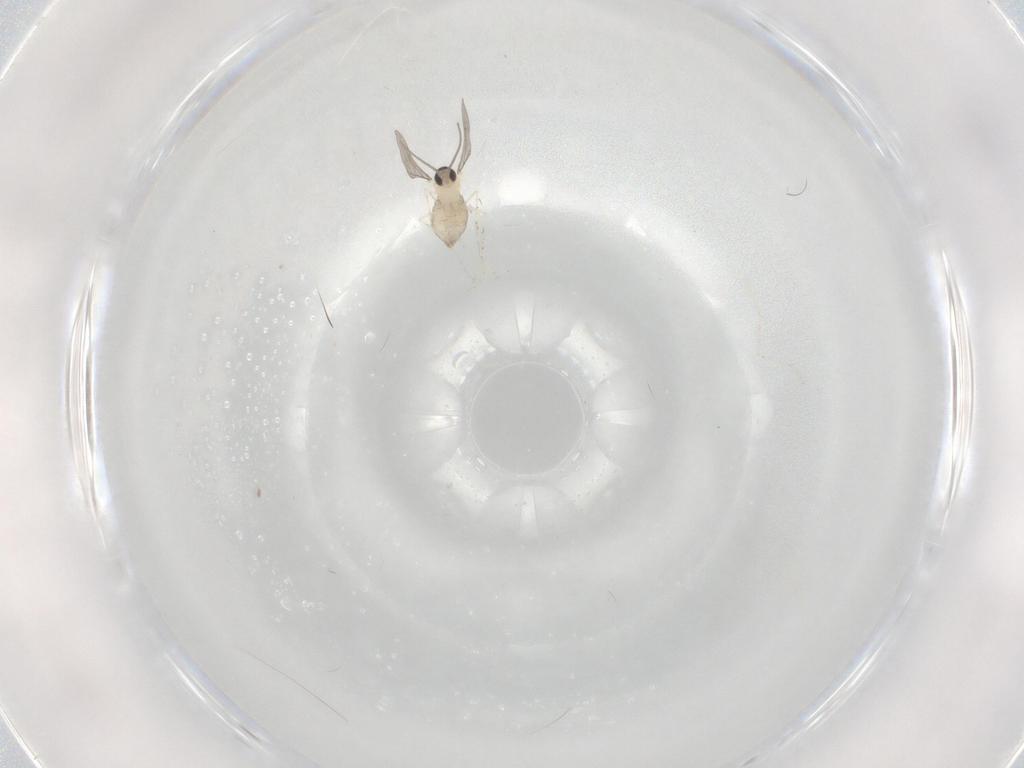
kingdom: Animalia
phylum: Arthropoda
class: Insecta
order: Diptera
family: Cecidomyiidae
